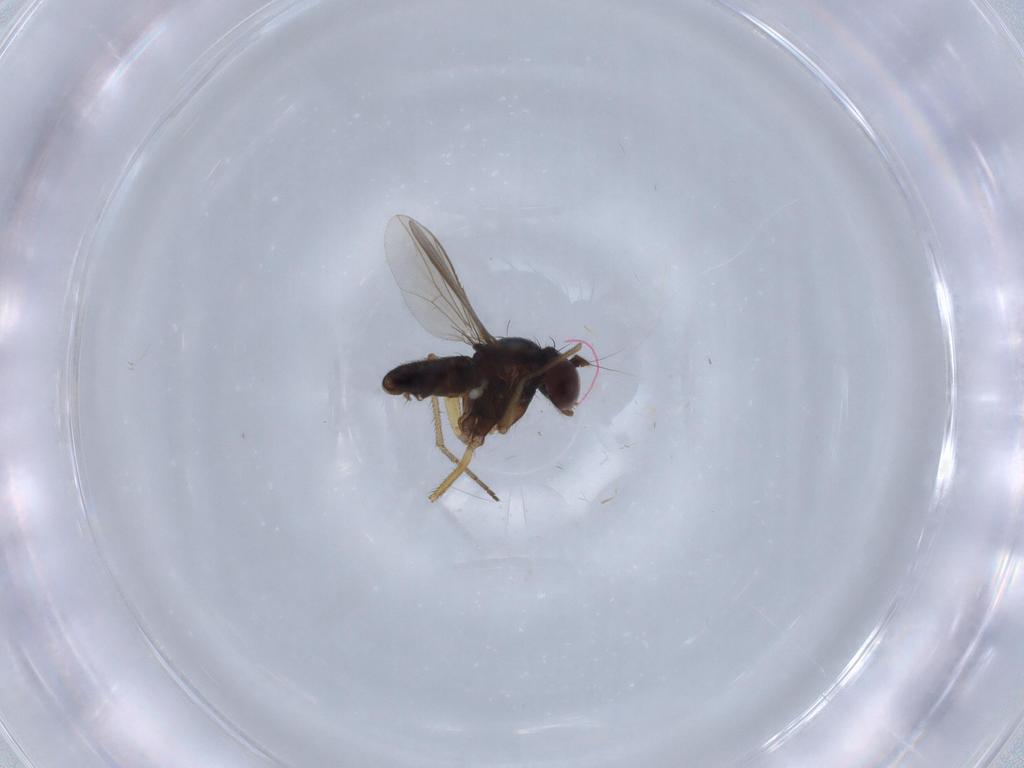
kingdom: Animalia
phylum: Arthropoda
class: Insecta
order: Diptera
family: Dolichopodidae
